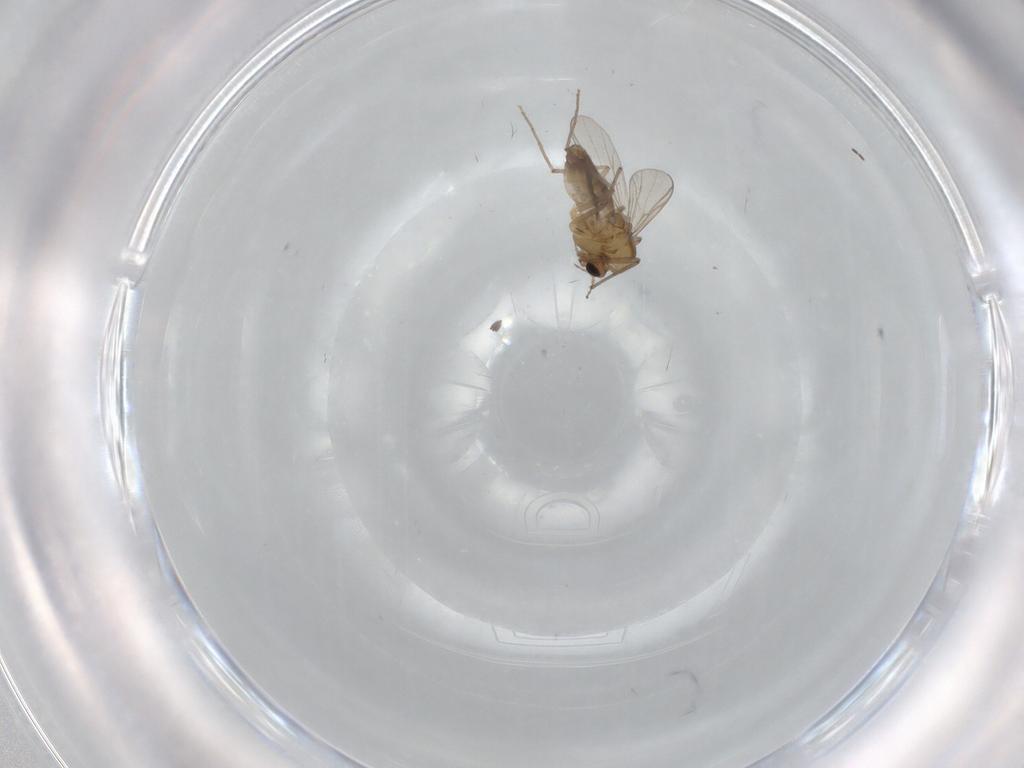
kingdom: Animalia
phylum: Arthropoda
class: Insecta
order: Diptera
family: Chironomidae
